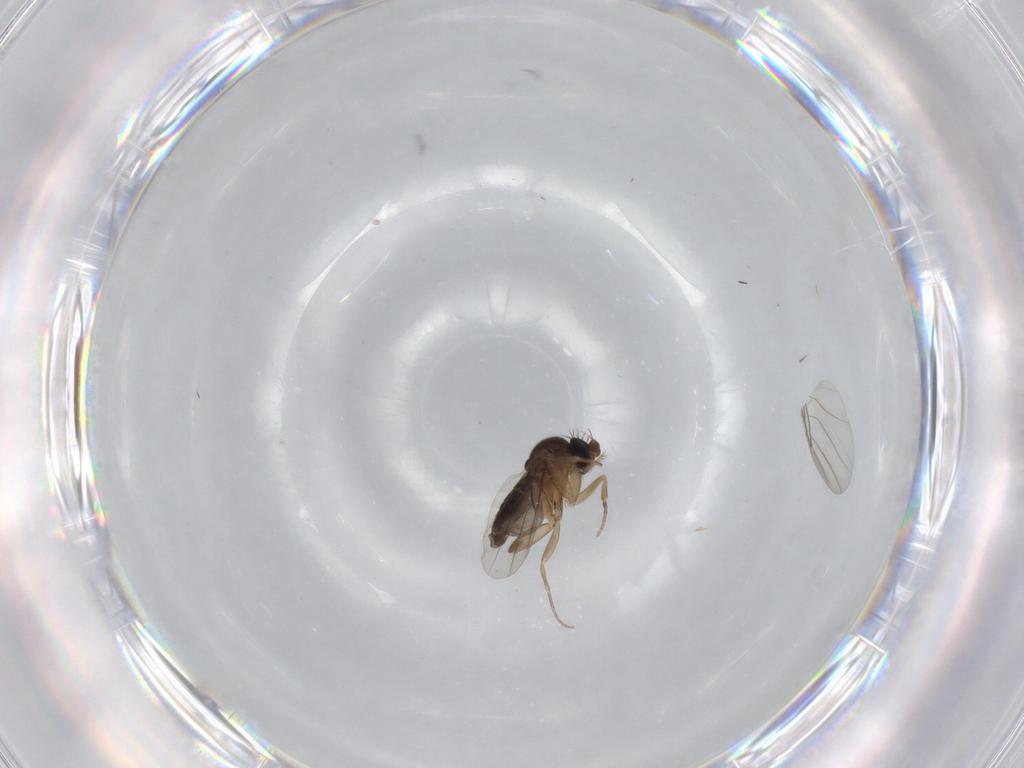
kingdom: Animalia
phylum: Arthropoda
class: Insecta
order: Diptera
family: Phoridae
